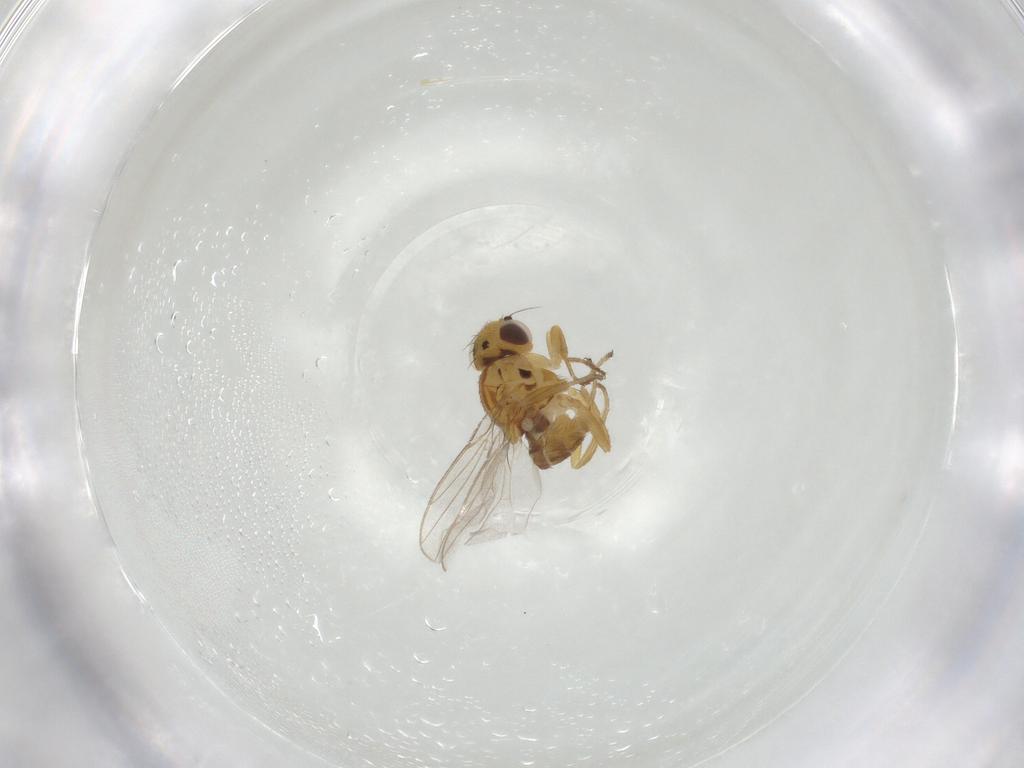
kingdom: Animalia
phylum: Arthropoda
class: Insecta
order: Diptera
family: Chloropidae
